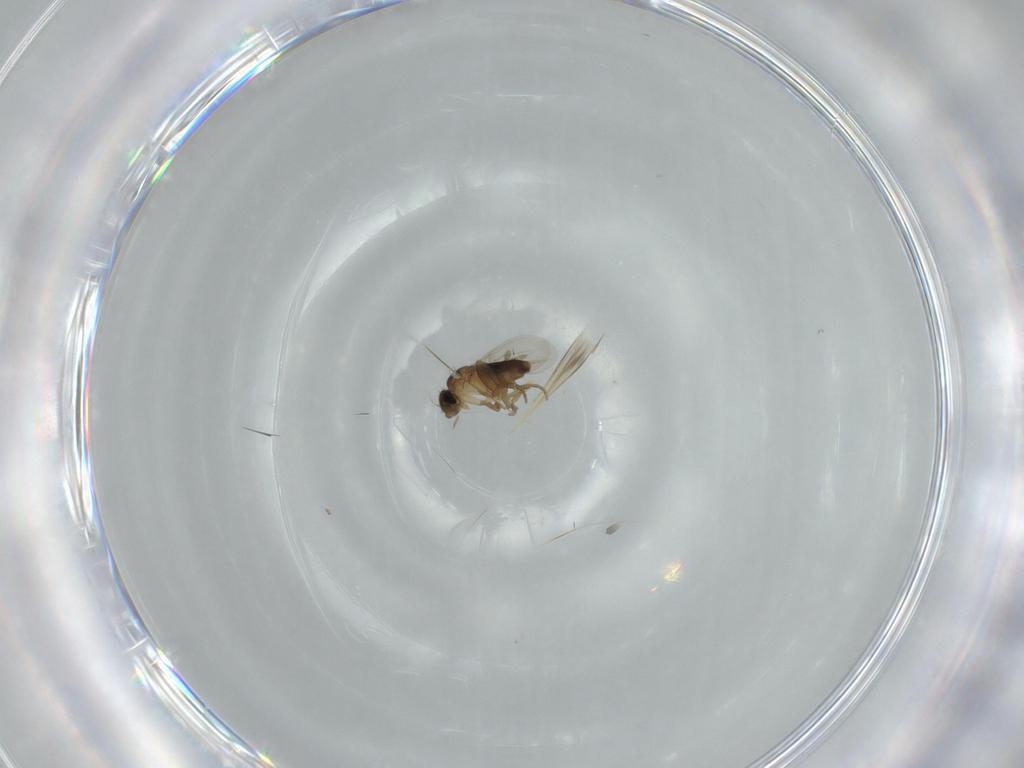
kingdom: Animalia
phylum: Arthropoda
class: Insecta
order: Diptera
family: Phoridae
